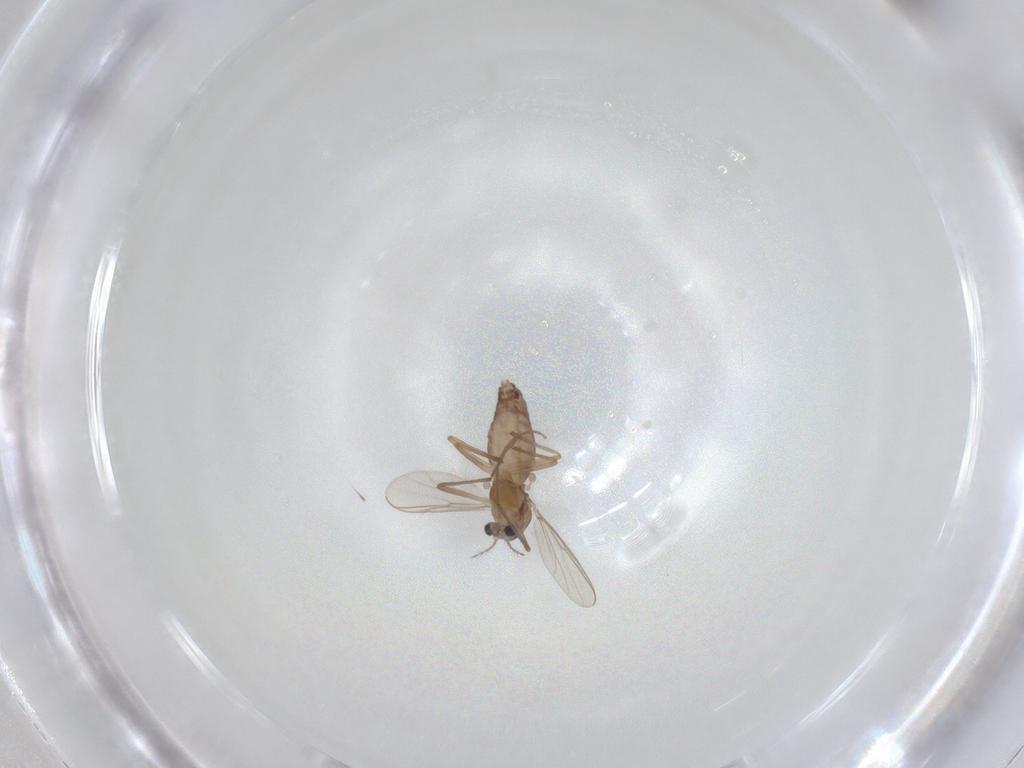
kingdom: Animalia
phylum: Arthropoda
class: Insecta
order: Diptera
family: Chironomidae
